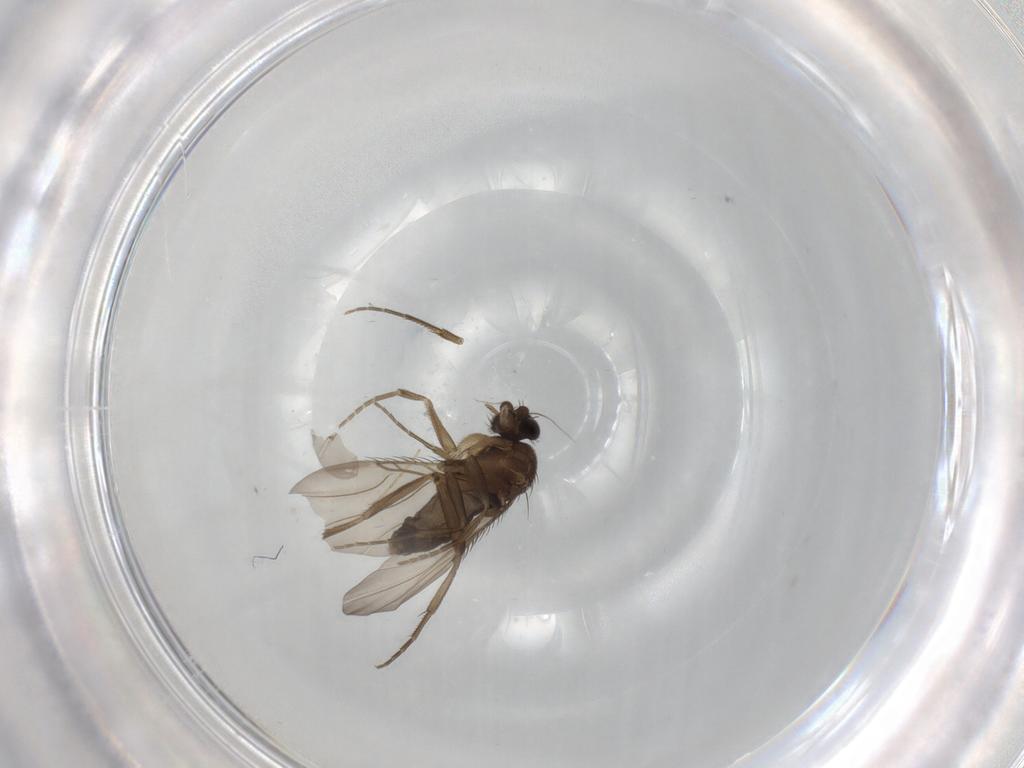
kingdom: Animalia
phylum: Arthropoda
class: Insecta
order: Diptera
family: Phoridae
